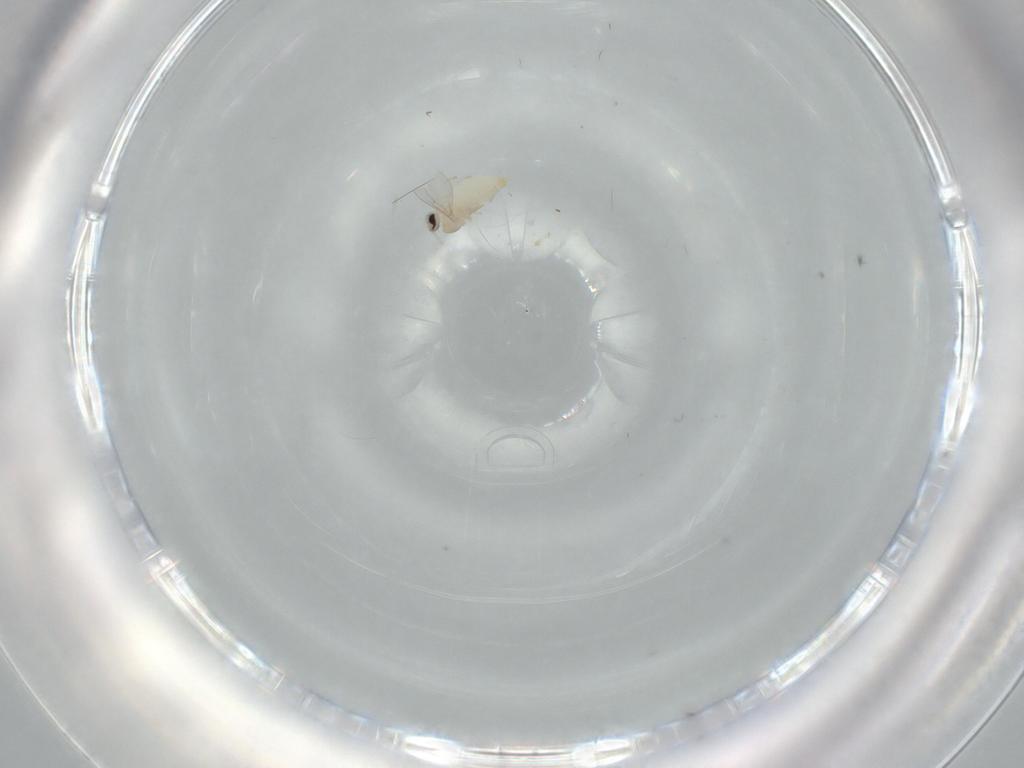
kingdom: Animalia
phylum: Arthropoda
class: Insecta
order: Diptera
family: Cecidomyiidae
